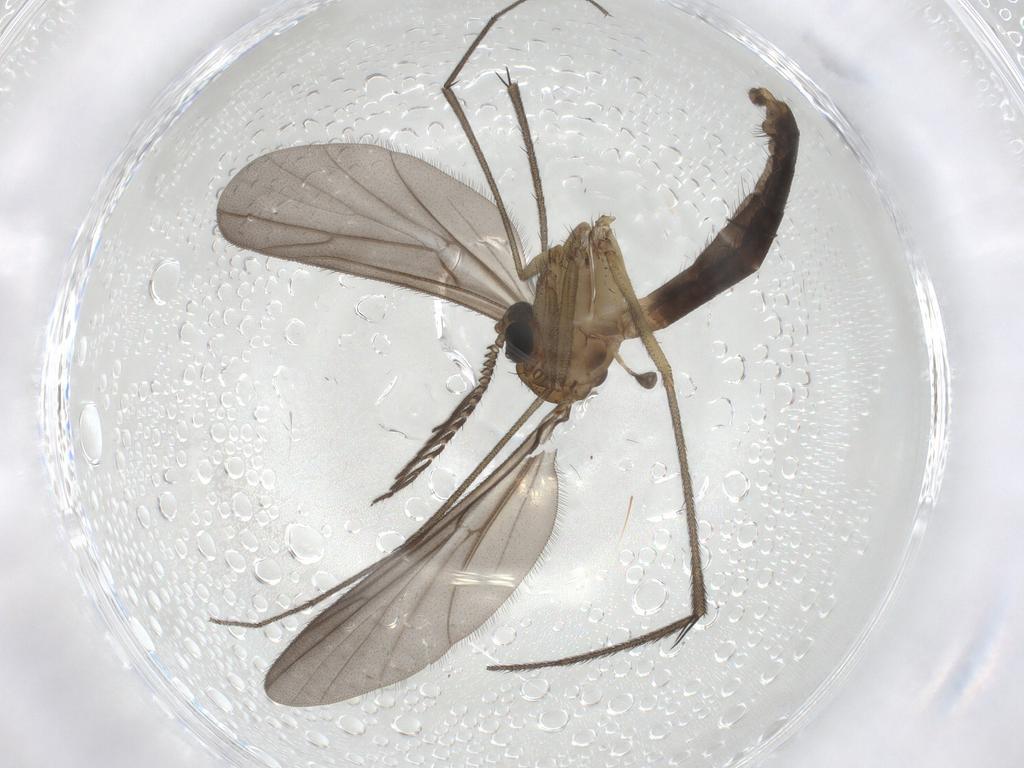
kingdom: Animalia
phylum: Arthropoda
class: Insecta
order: Diptera
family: Ditomyiidae
